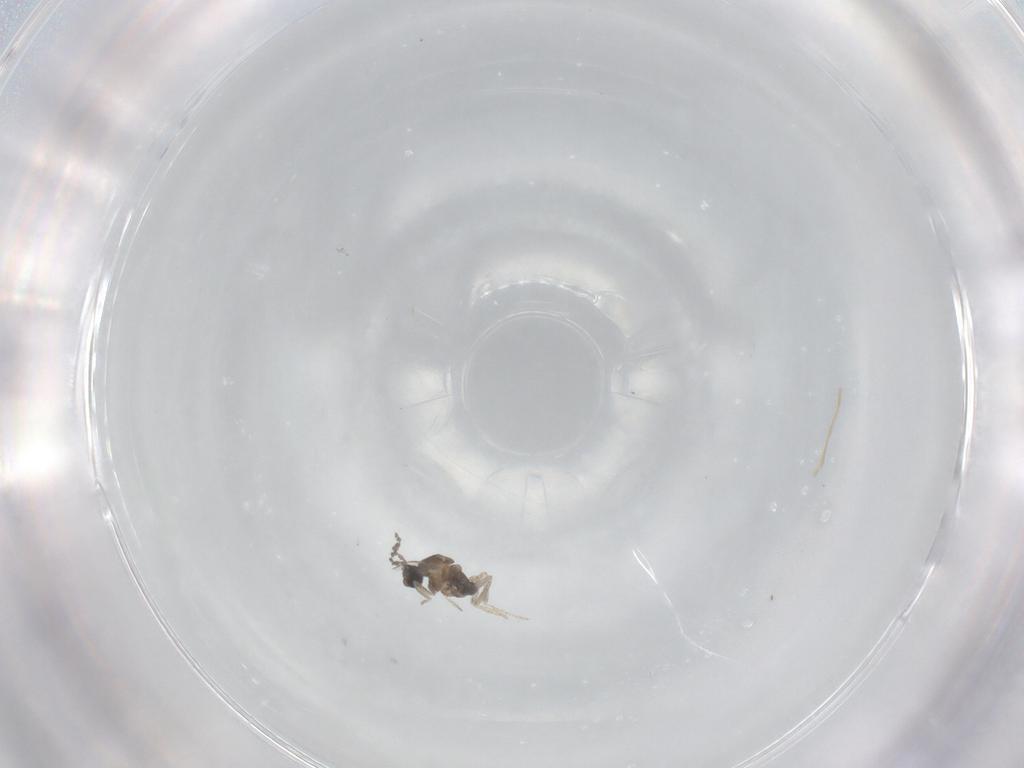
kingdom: Animalia
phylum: Arthropoda
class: Insecta
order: Diptera
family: Cecidomyiidae
